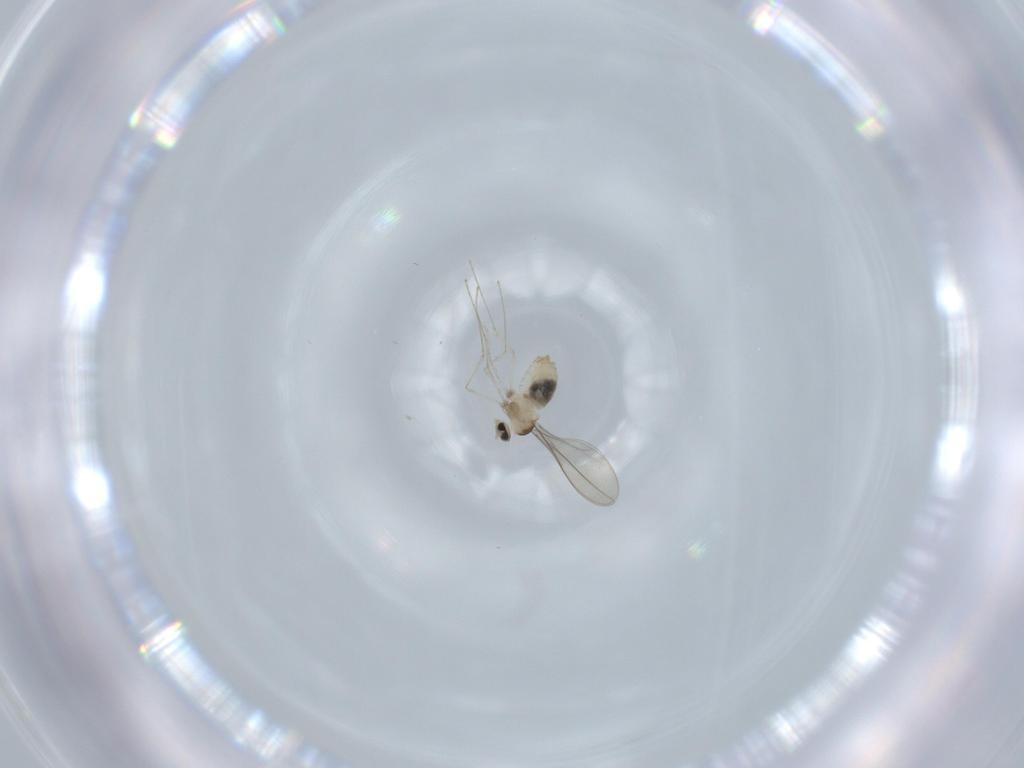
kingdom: Animalia
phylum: Arthropoda
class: Insecta
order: Diptera
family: Cecidomyiidae
